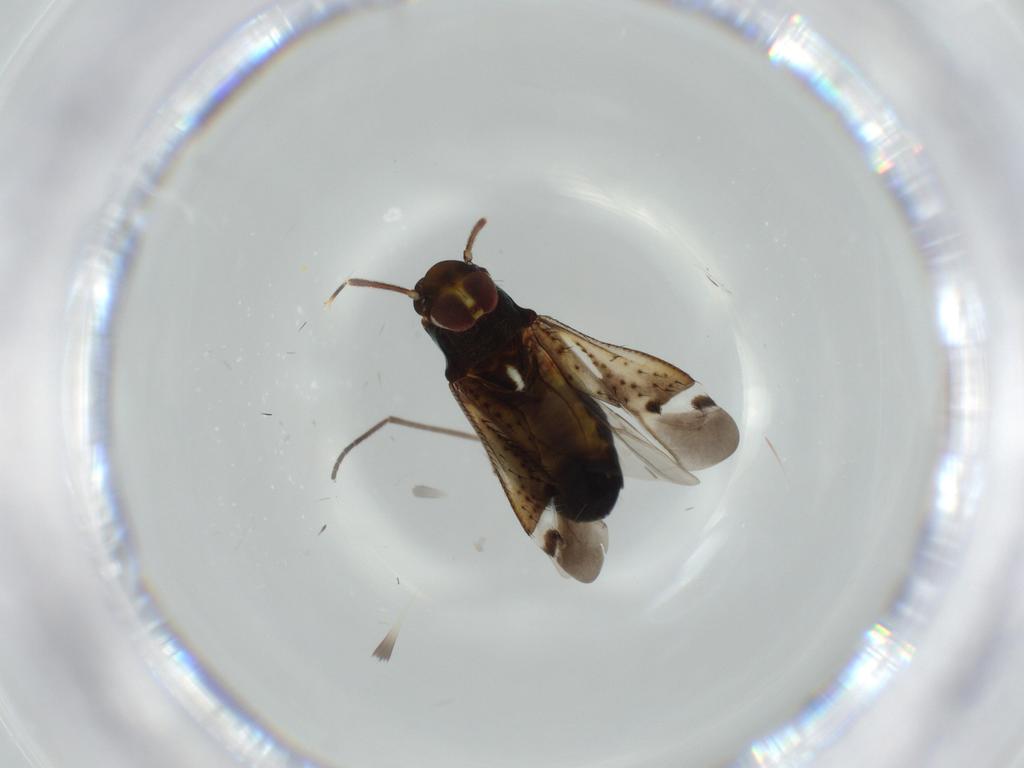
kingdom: Animalia
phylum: Arthropoda
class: Insecta
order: Hemiptera
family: Miridae
